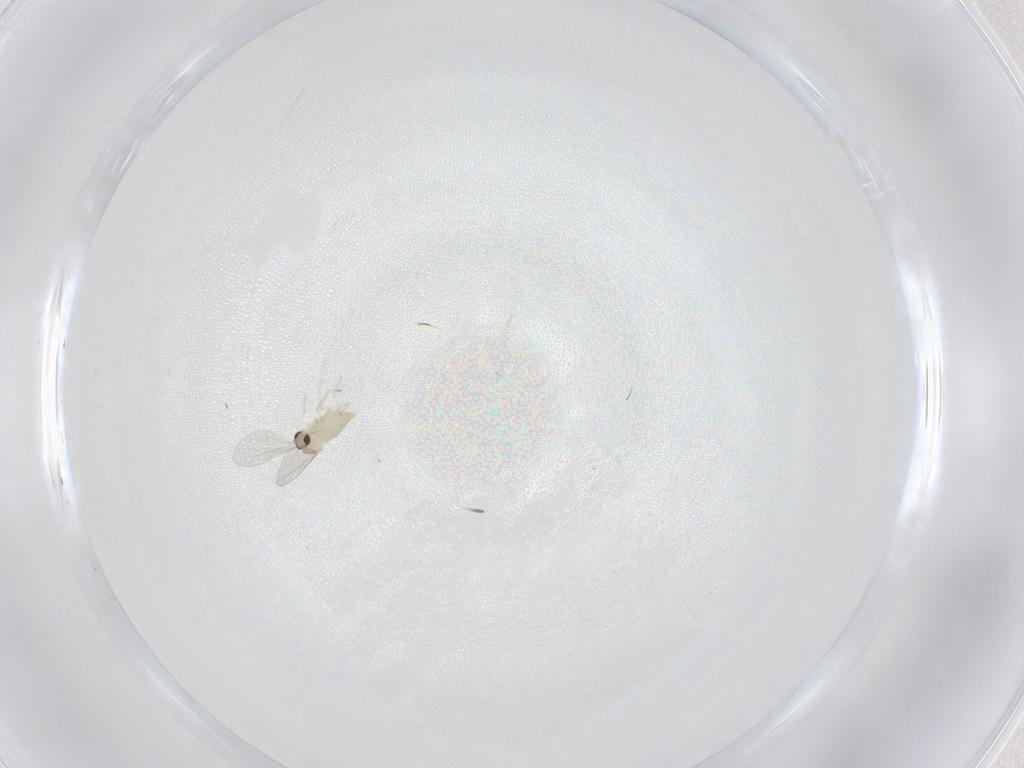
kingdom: Animalia
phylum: Arthropoda
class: Insecta
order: Diptera
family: Cecidomyiidae
